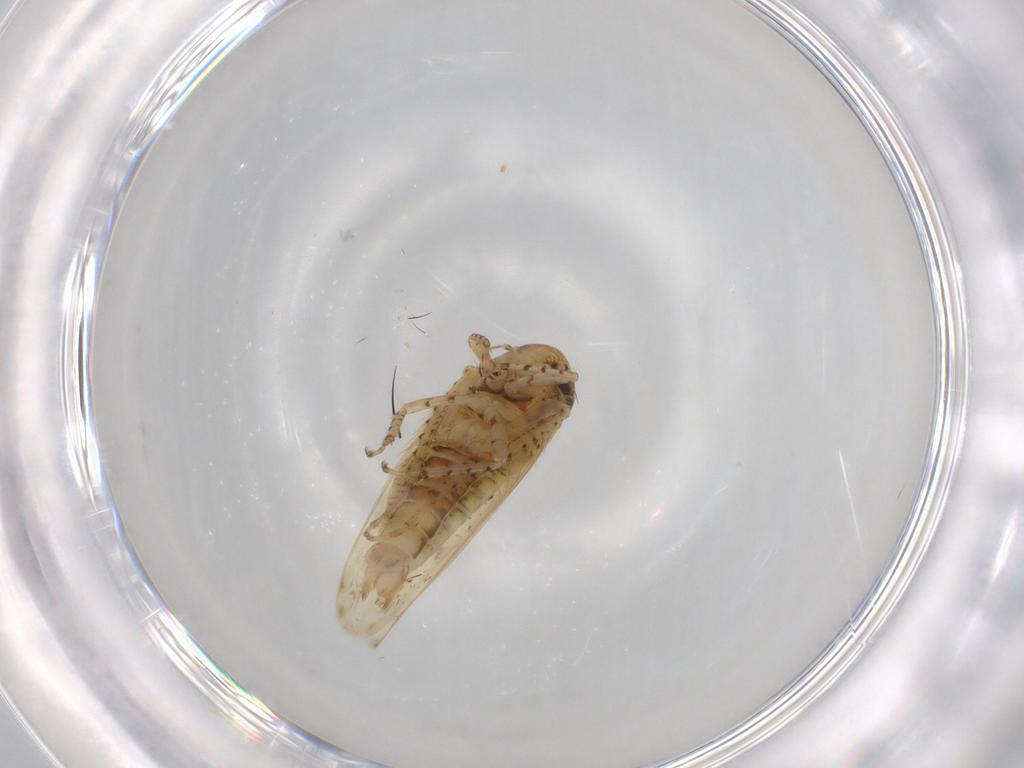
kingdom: Animalia
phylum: Arthropoda
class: Insecta
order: Hemiptera
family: Cicadellidae
